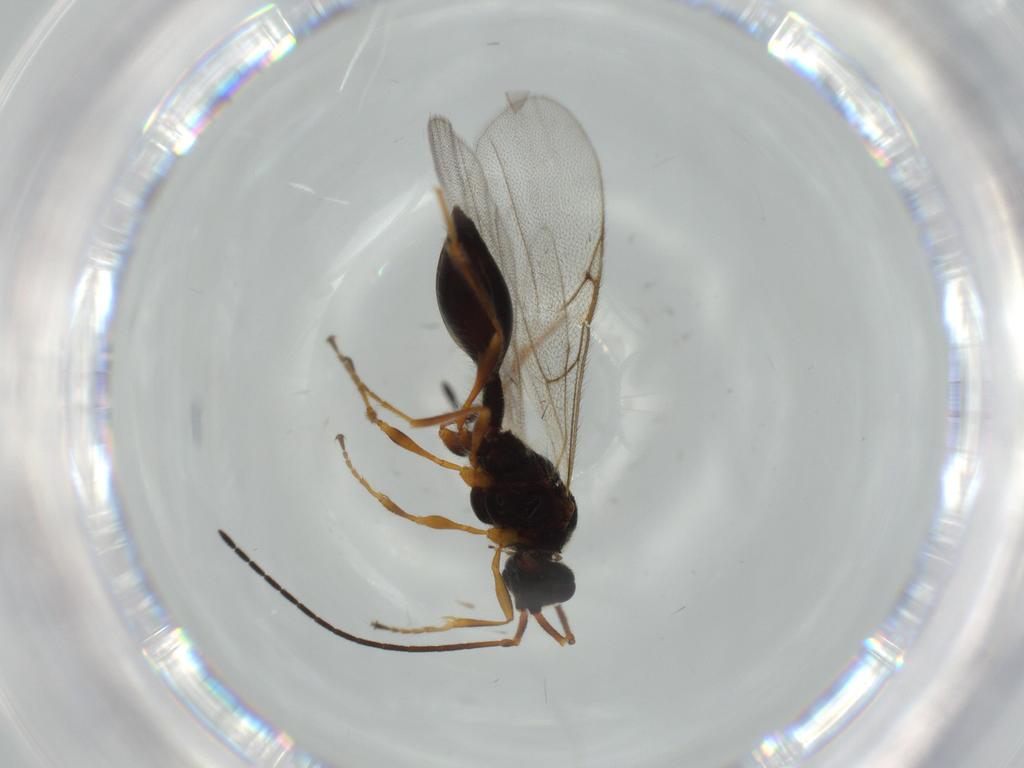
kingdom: Animalia
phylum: Arthropoda
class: Insecta
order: Hymenoptera
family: Diapriidae
